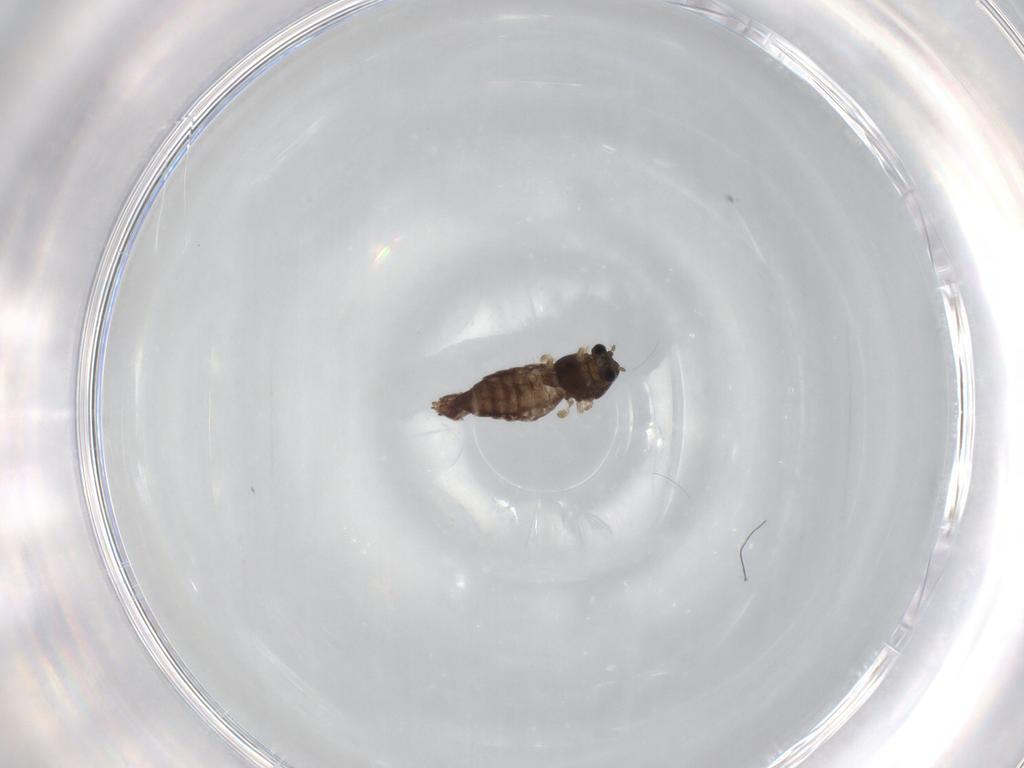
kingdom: Animalia
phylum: Arthropoda
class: Insecta
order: Diptera
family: Chironomidae
